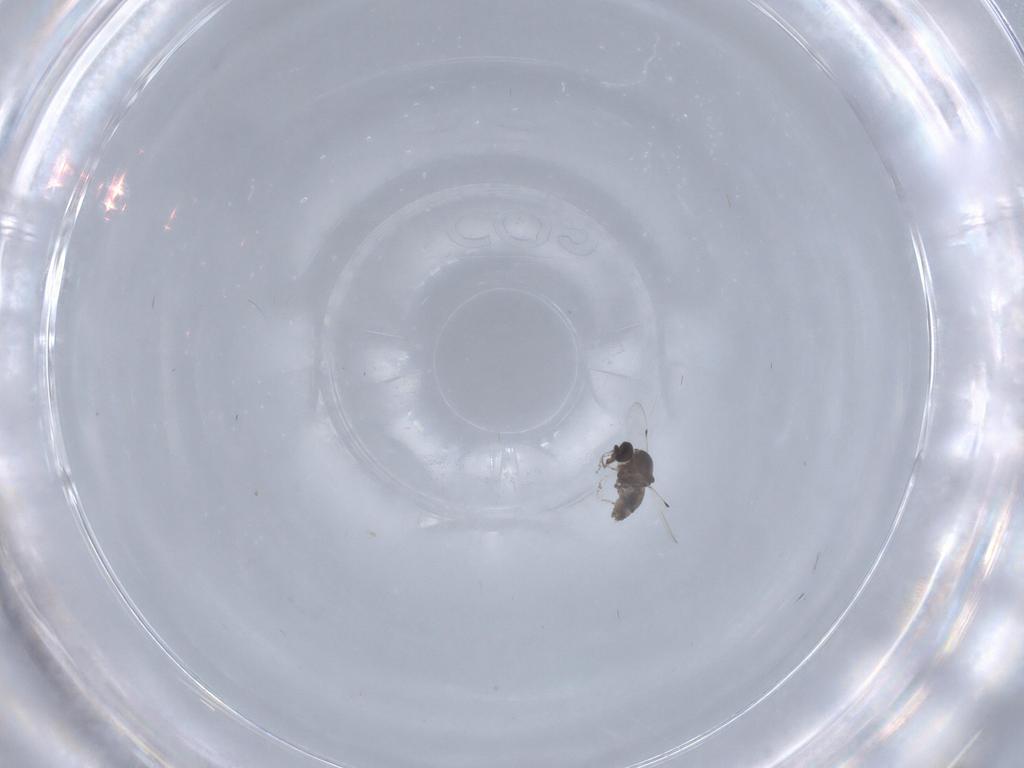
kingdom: Animalia
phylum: Arthropoda
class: Insecta
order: Diptera
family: Ceratopogonidae
